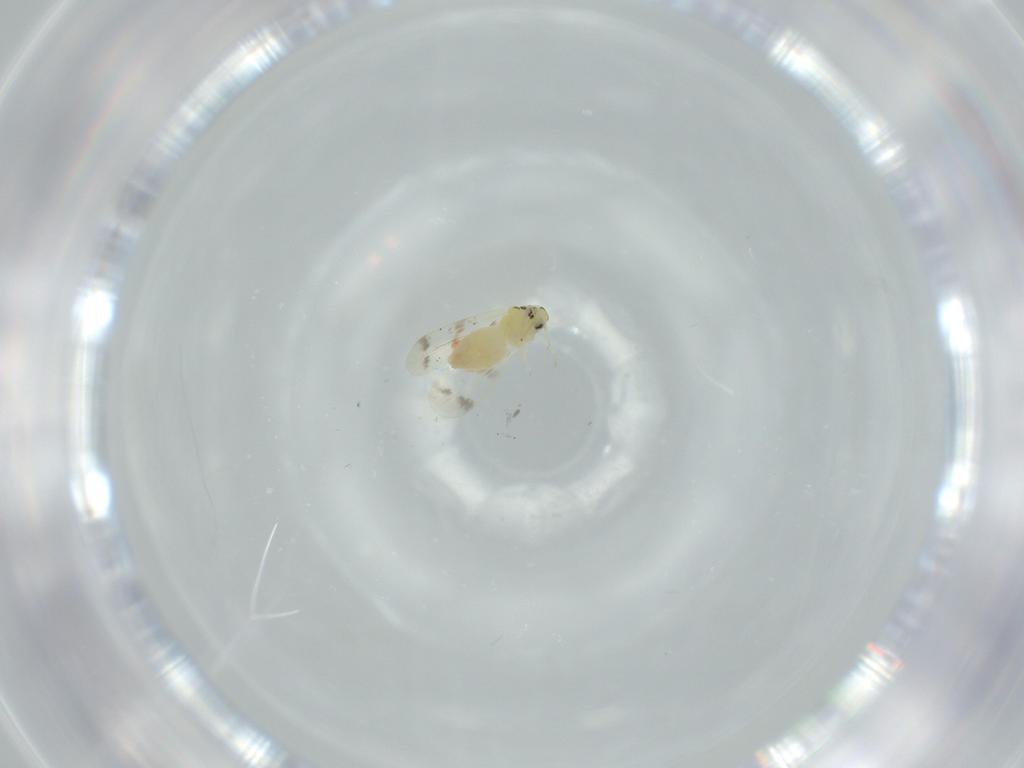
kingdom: Animalia
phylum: Arthropoda
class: Insecta
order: Hemiptera
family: Aleyrodidae
